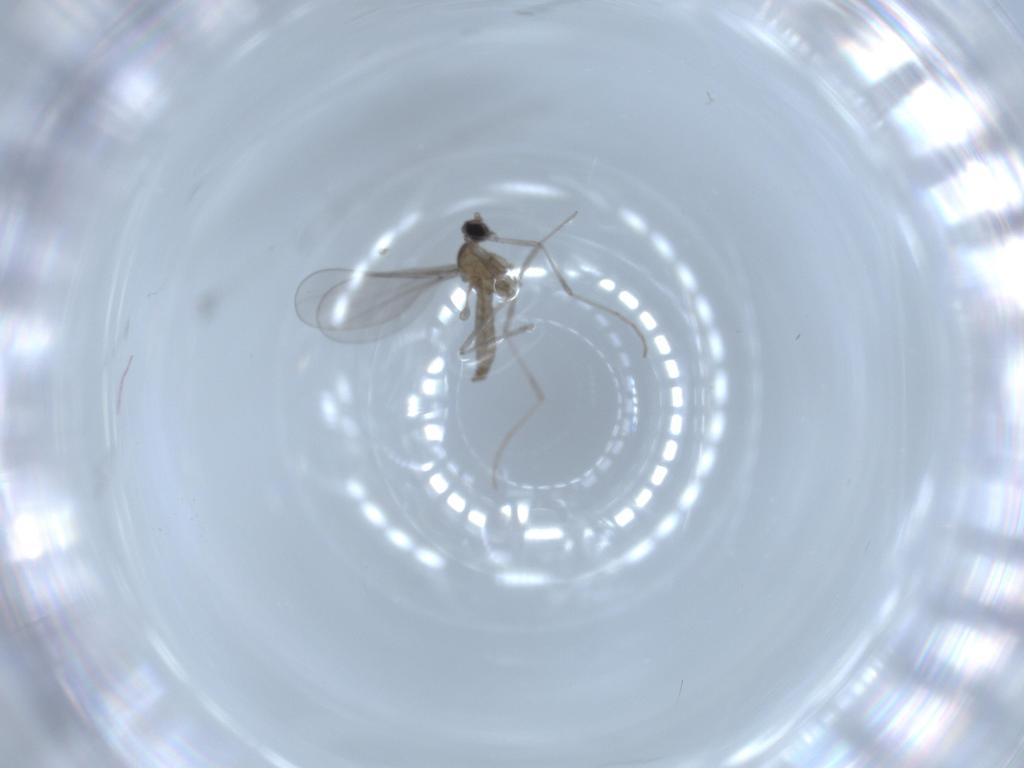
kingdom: Animalia
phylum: Arthropoda
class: Insecta
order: Diptera
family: Cecidomyiidae
